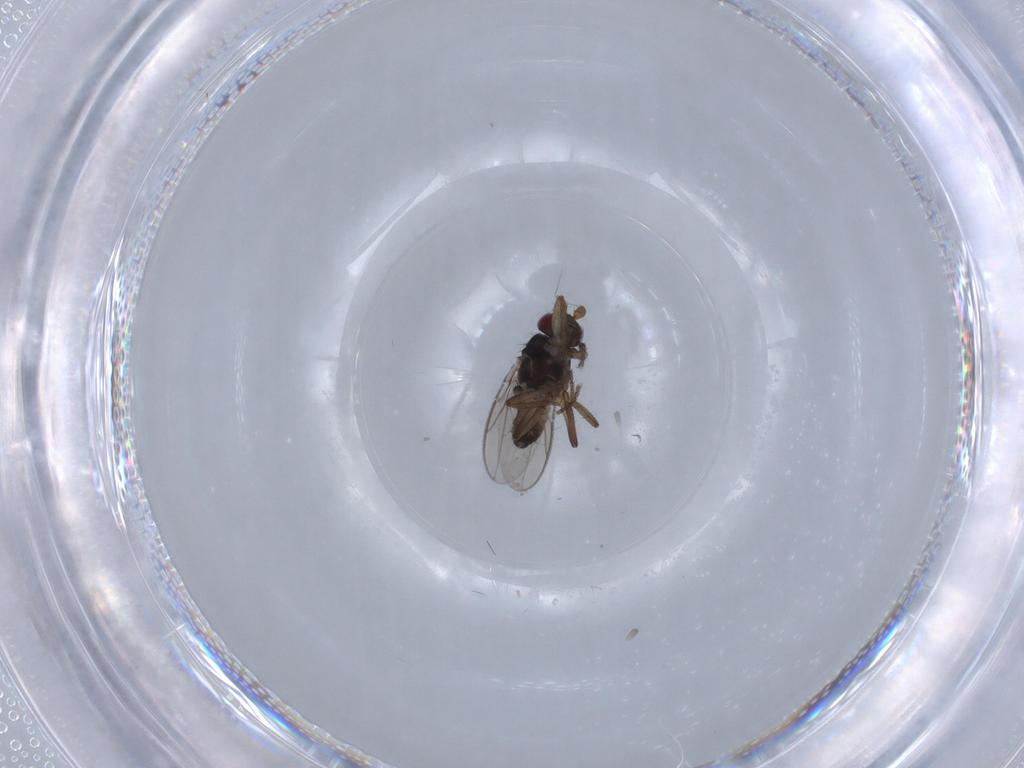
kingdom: Animalia
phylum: Arthropoda
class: Insecta
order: Diptera
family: Sphaeroceridae
